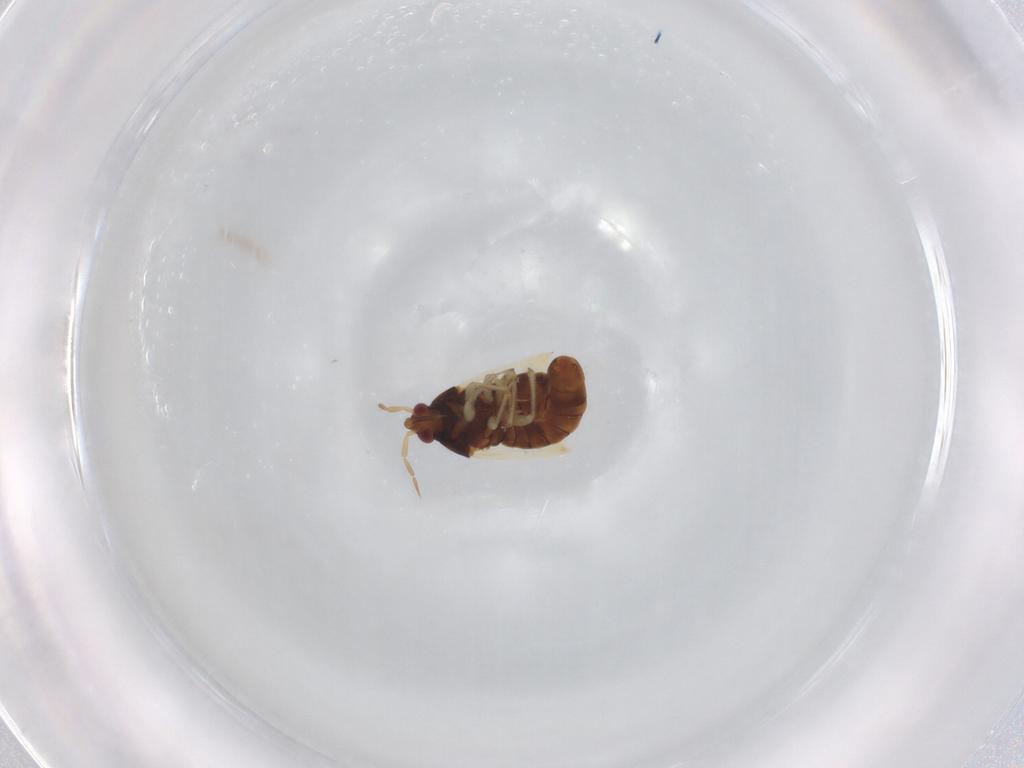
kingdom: Animalia
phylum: Arthropoda
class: Insecta
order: Hemiptera
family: Anthocoridae
